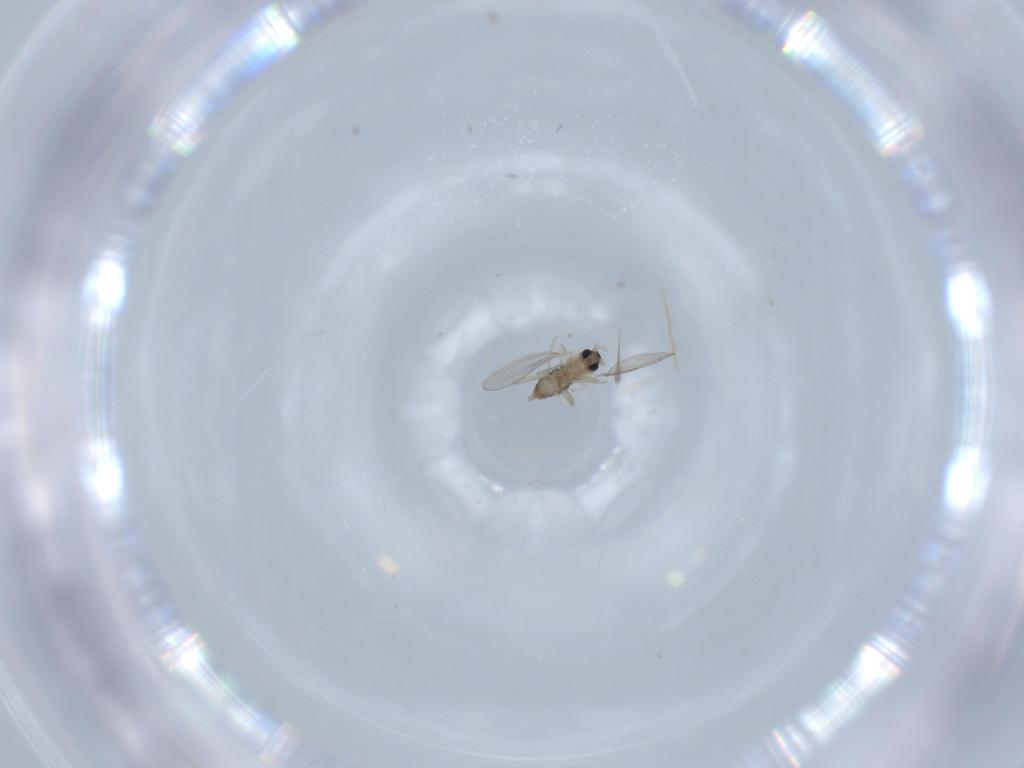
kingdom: Animalia
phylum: Arthropoda
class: Insecta
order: Diptera
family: Cecidomyiidae
